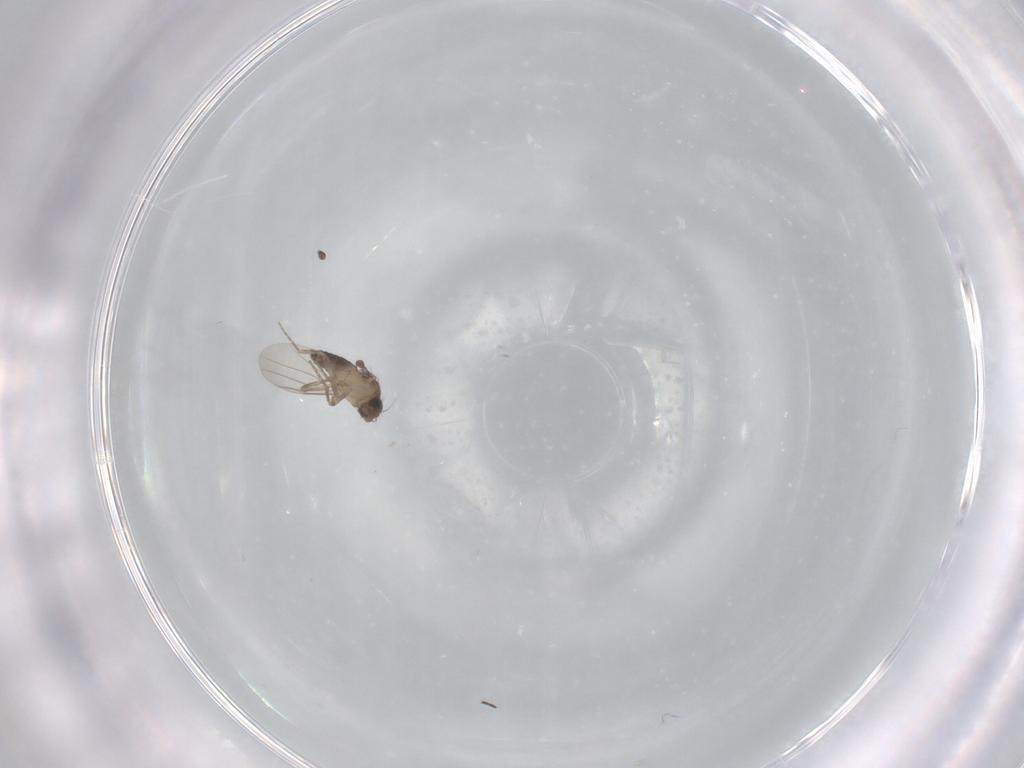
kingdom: Animalia
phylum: Arthropoda
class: Insecta
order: Diptera
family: Sciaridae
